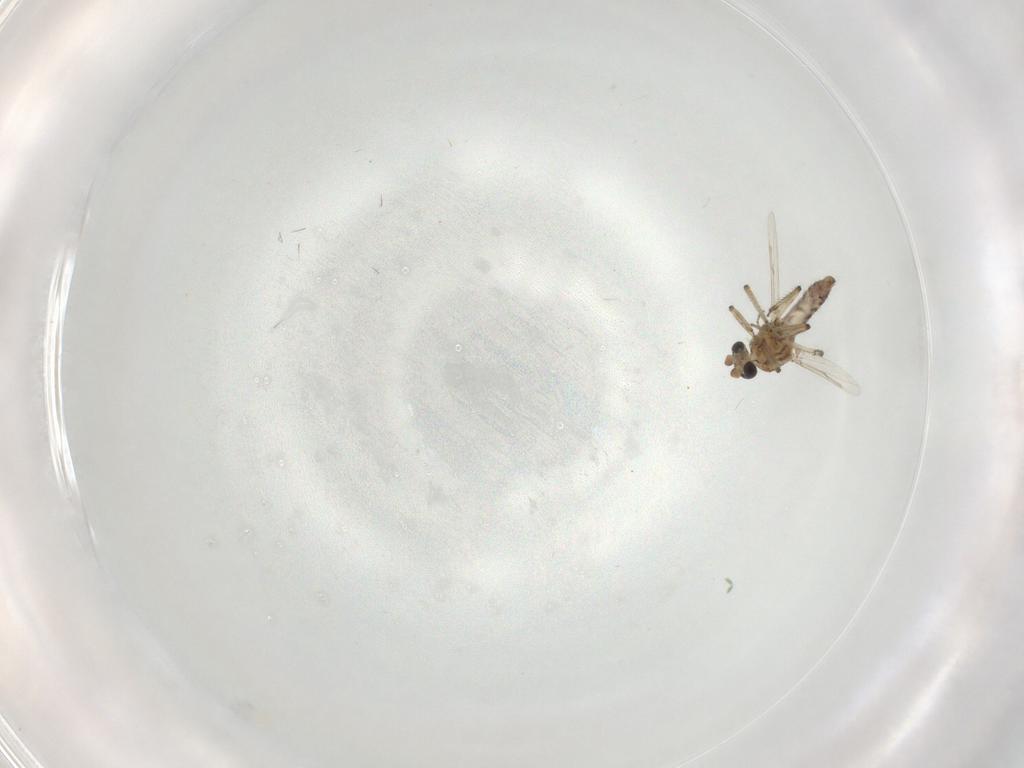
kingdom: Animalia
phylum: Arthropoda
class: Insecta
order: Diptera
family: Ceratopogonidae
